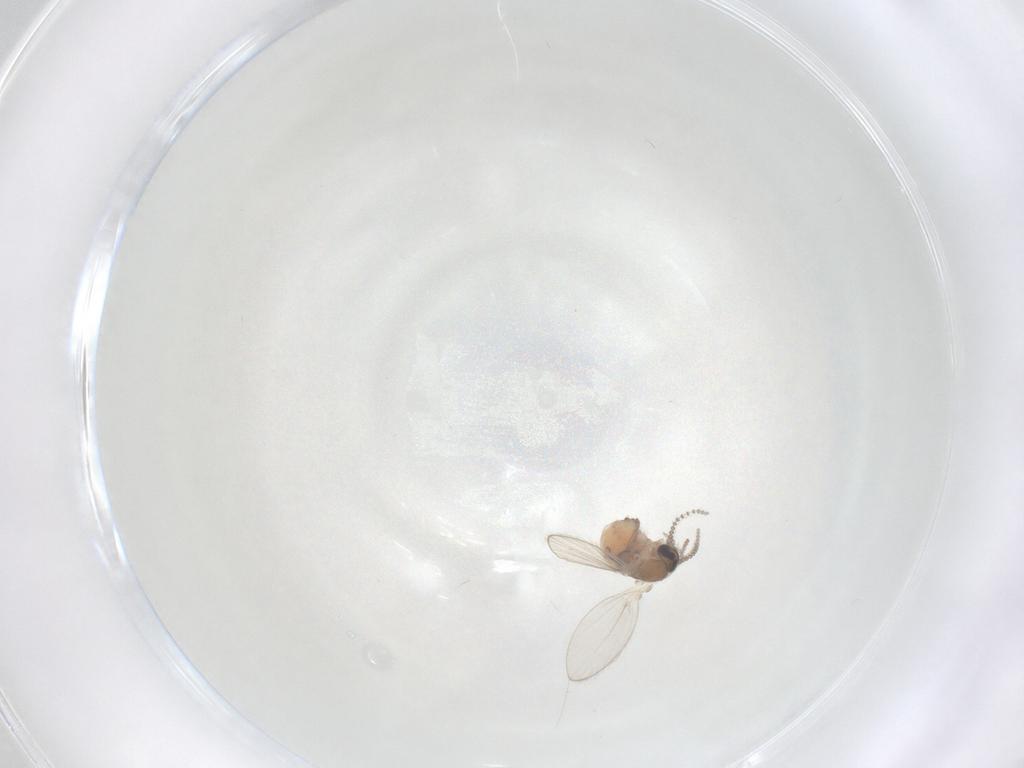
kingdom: Animalia
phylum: Arthropoda
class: Insecta
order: Diptera
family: Psychodidae
